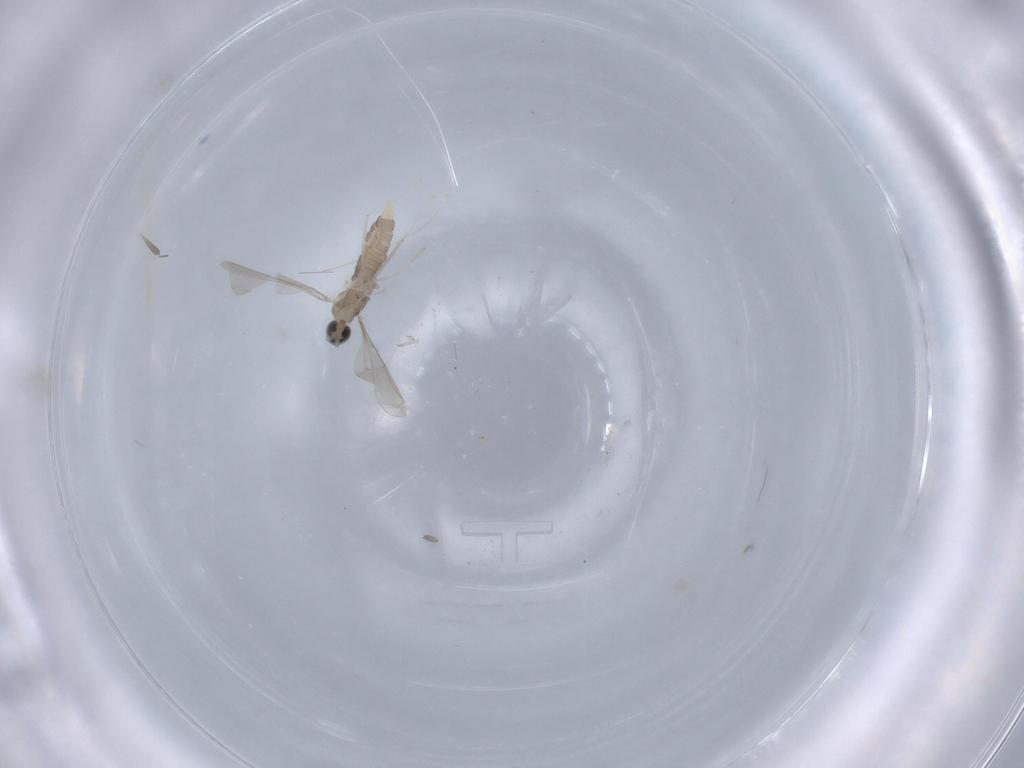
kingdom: Animalia
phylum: Arthropoda
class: Insecta
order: Diptera
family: Cecidomyiidae
